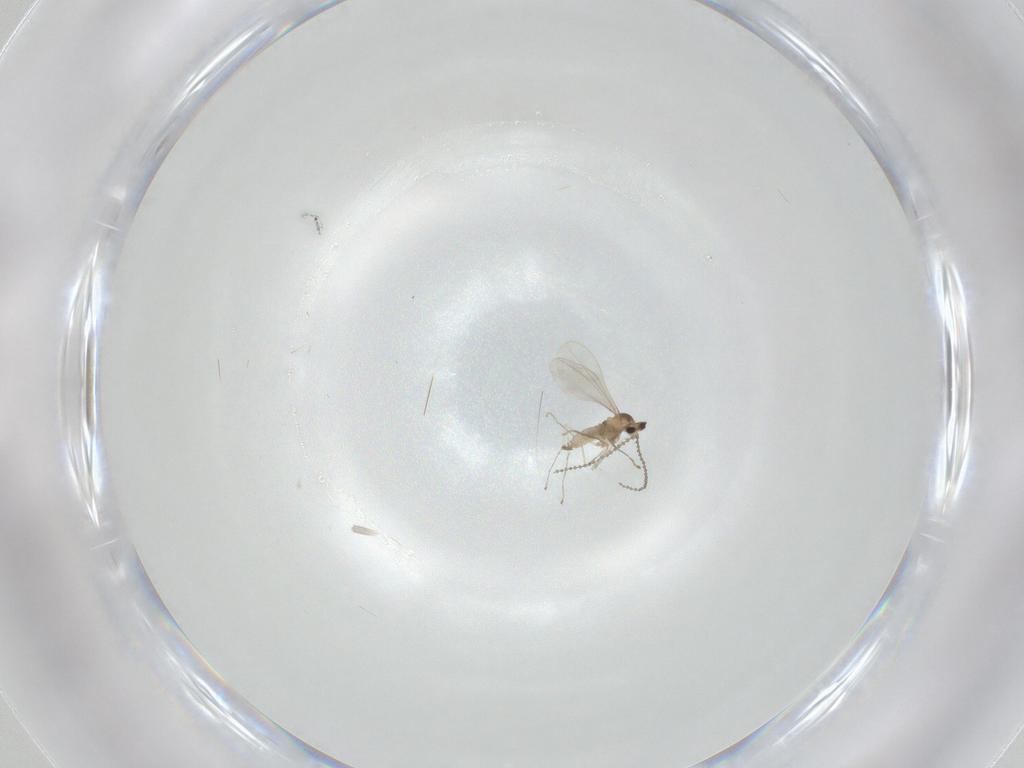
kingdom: Animalia
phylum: Arthropoda
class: Insecta
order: Diptera
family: Cecidomyiidae
